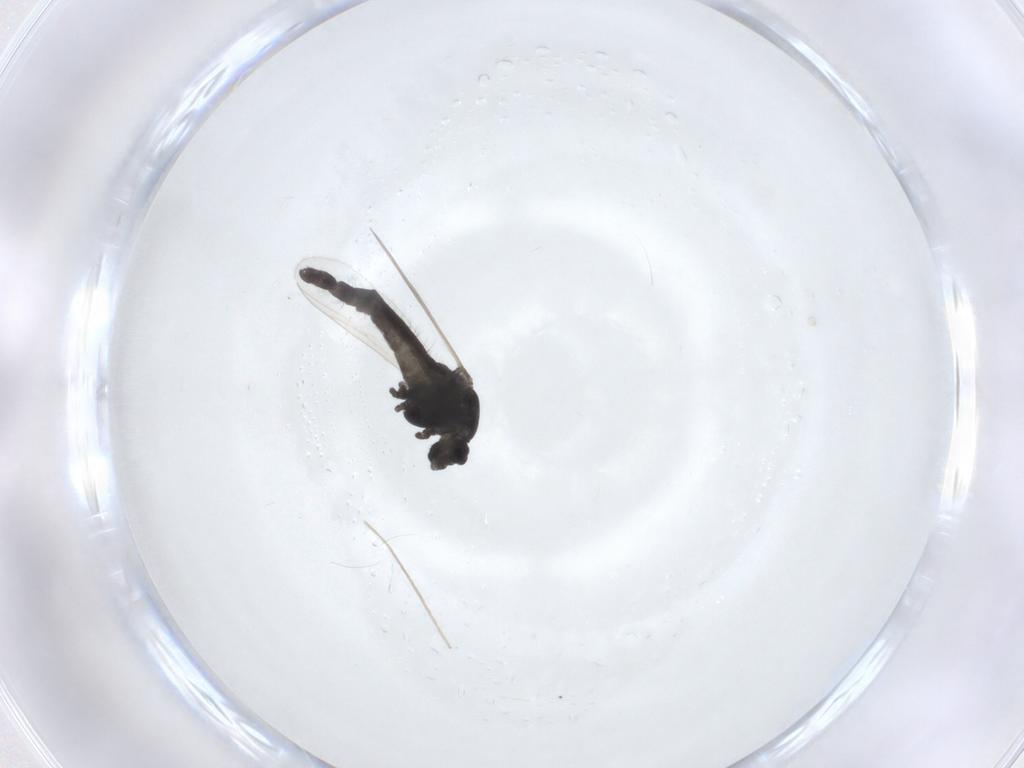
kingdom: Animalia
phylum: Arthropoda
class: Insecta
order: Diptera
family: Chironomidae
